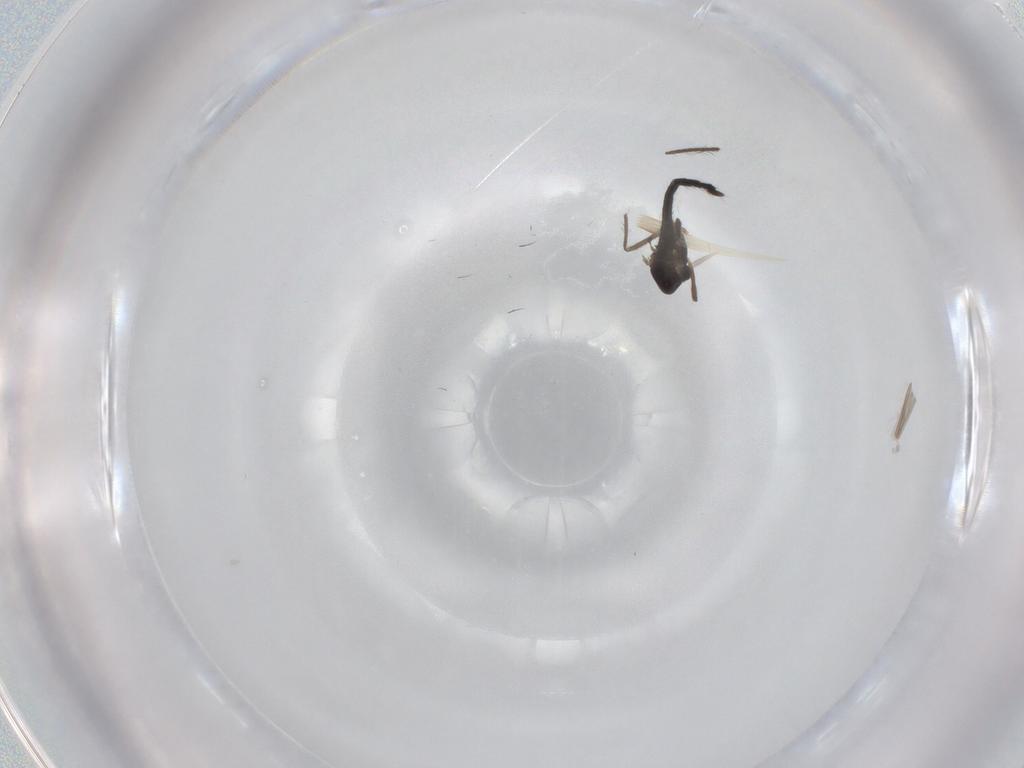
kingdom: Animalia
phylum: Arthropoda
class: Insecta
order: Diptera
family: Chironomidae
